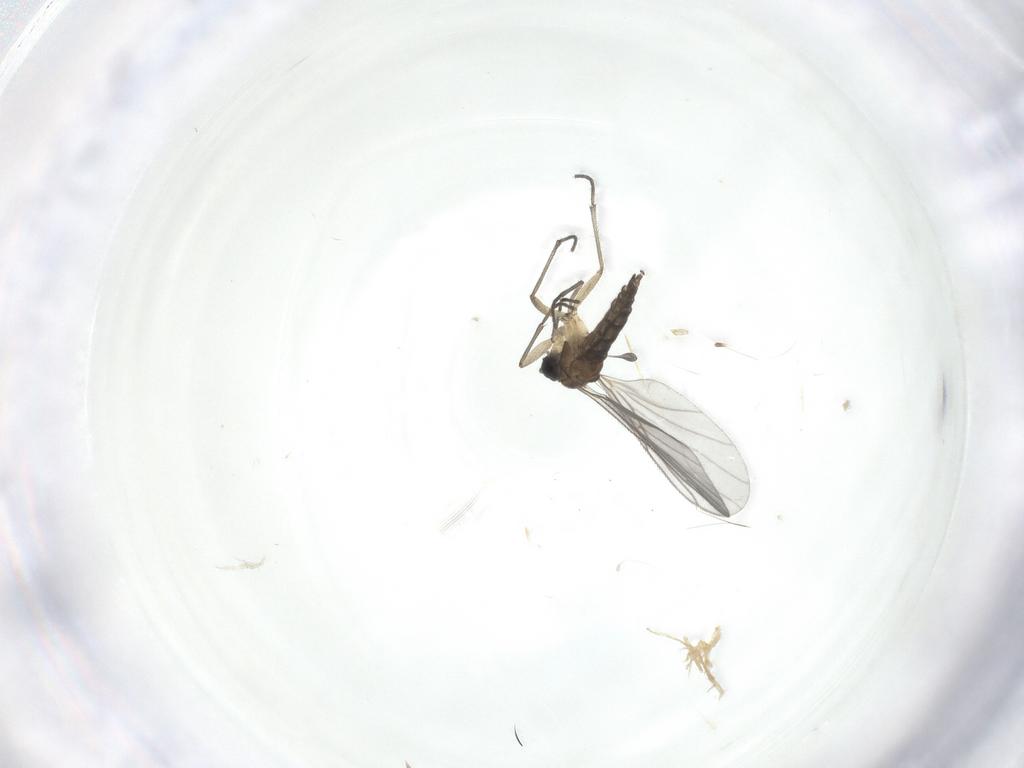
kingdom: Animalia
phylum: Arthropoda
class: Insecta
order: Diptera
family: Sciaridae
